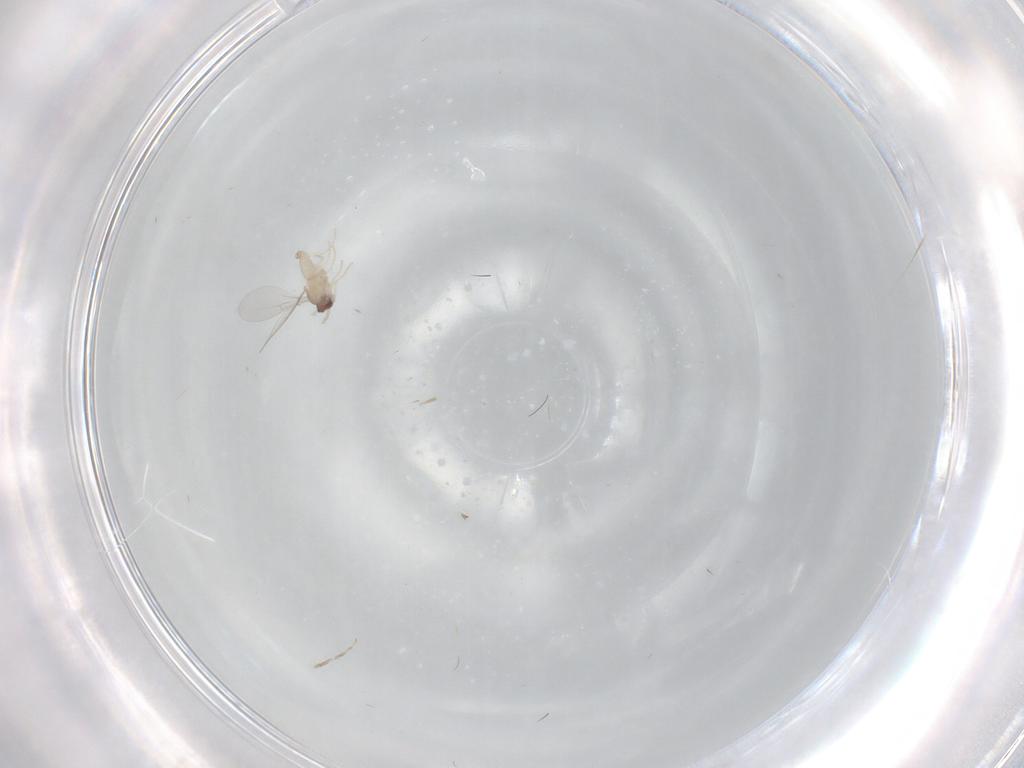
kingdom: Animalia
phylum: Arthropoda
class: Insecta
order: Diptera
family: Cecidomyiidae
